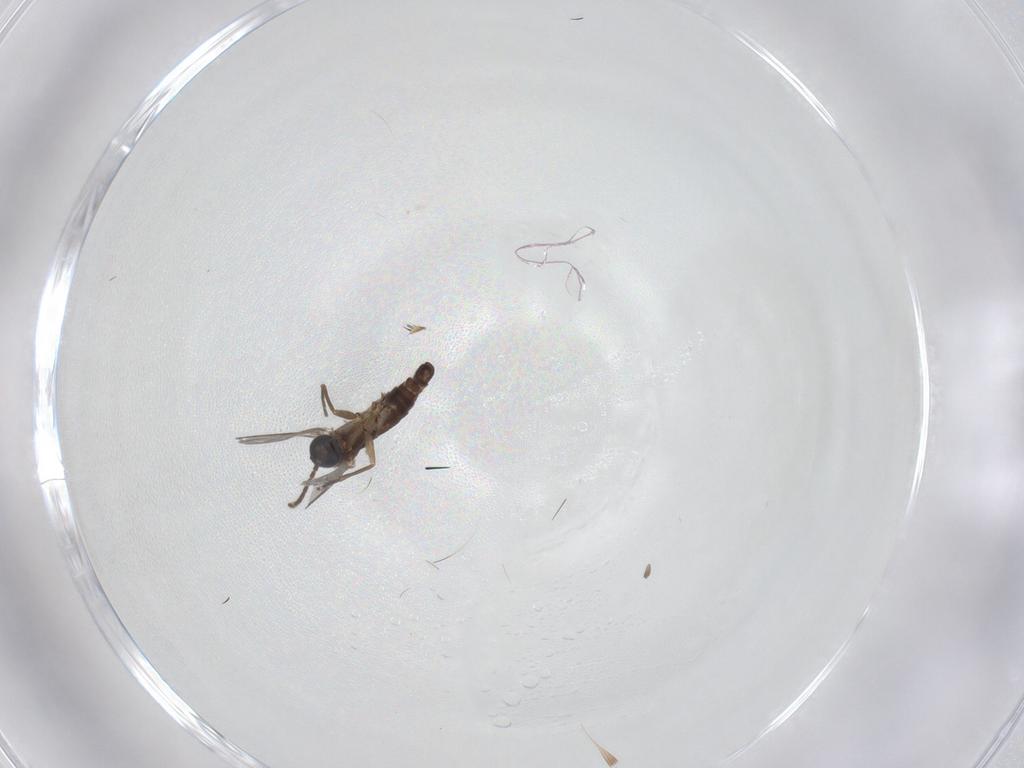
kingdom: Animalia
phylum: Arthropoda
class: Insecta
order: Diptera
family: Sciaridae
